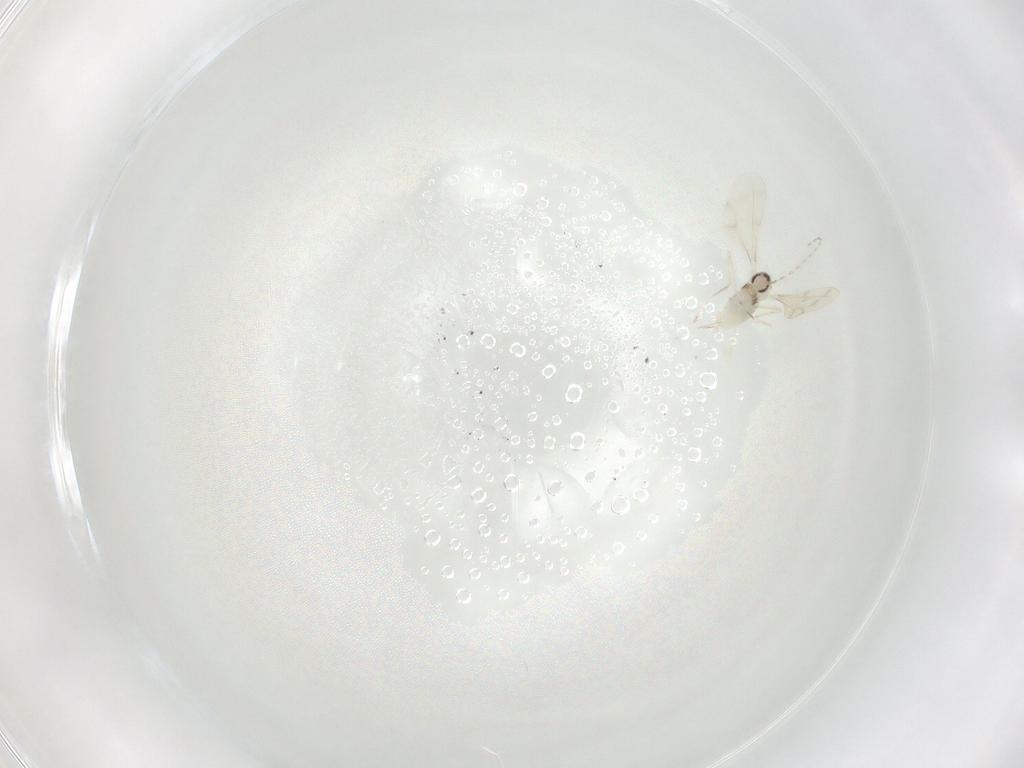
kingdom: Animalia
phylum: Arthropoda
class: Insecta
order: Diptera
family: Cecidomyiidae
